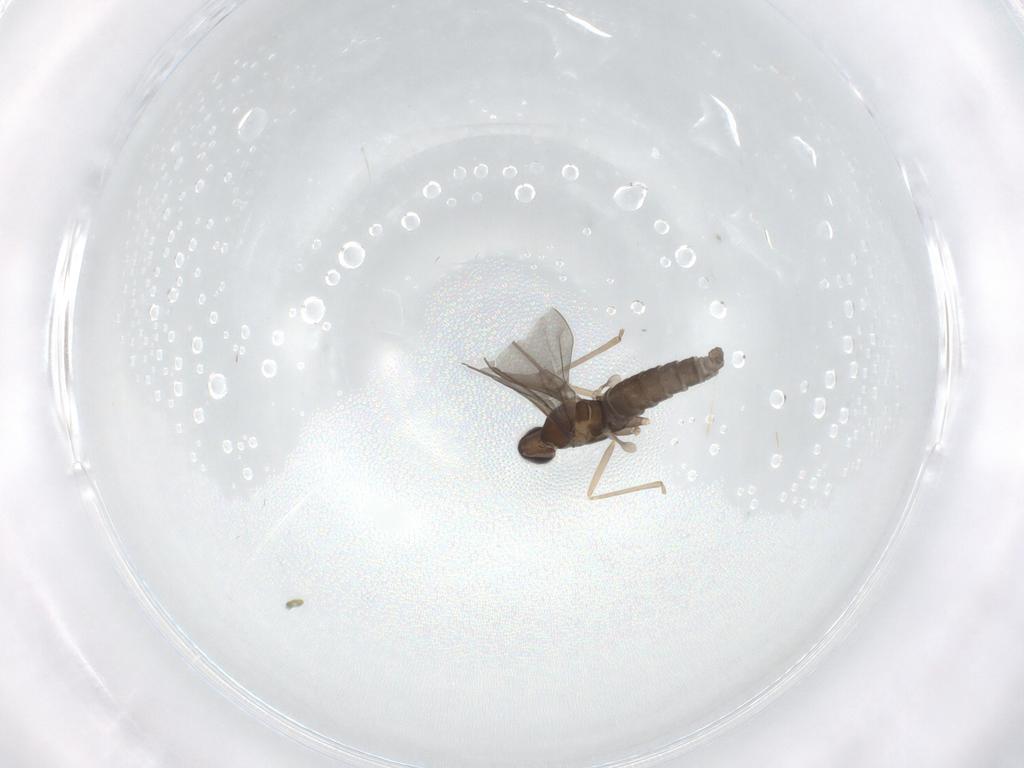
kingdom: Animalia
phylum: Arthropoda
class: Insecta
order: Diptera
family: Cecidomyiidae
